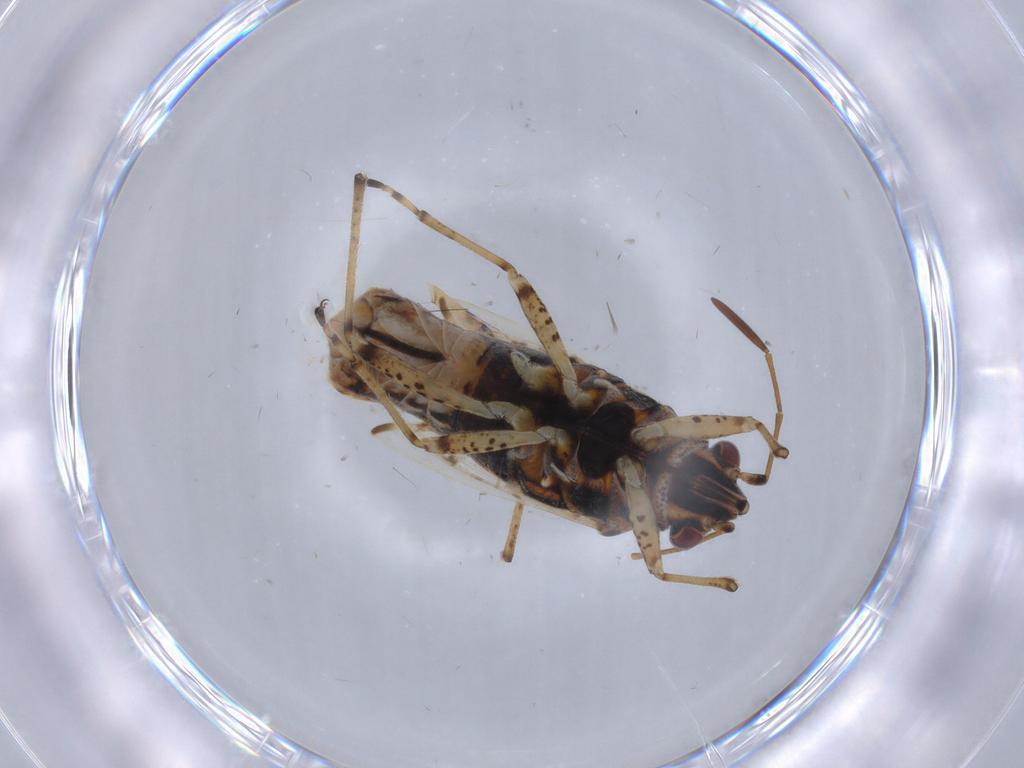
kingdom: Animalia
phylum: Arthropoda
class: Insecta
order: Hemiptera
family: Lygaeidae
